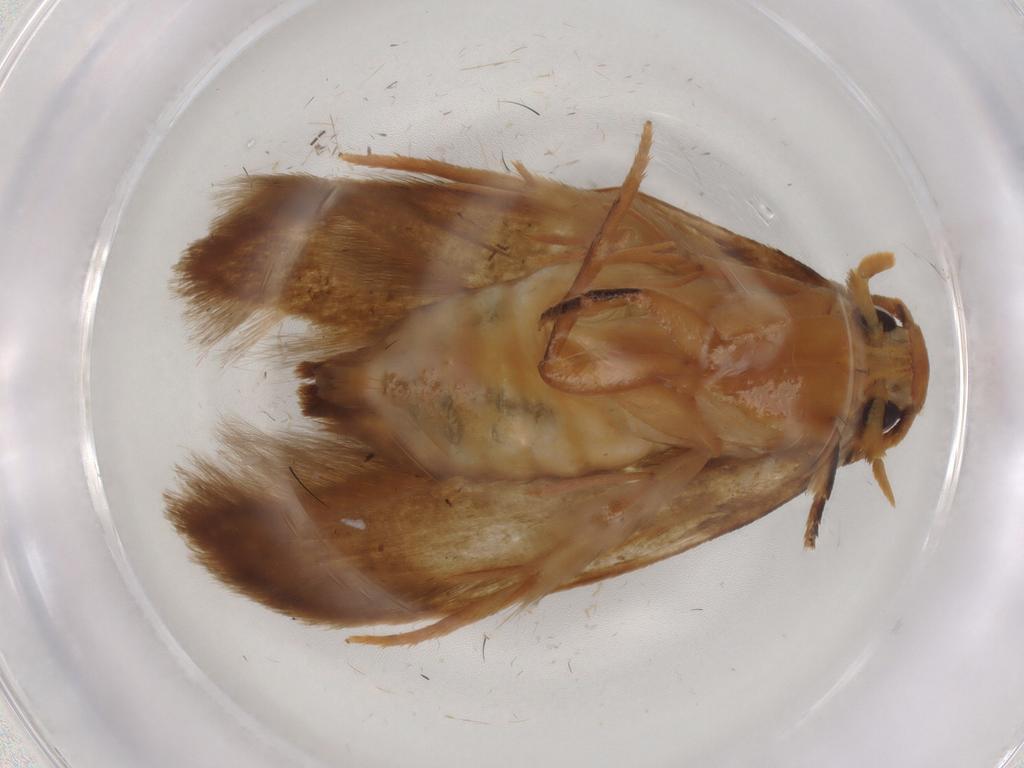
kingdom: Animalia
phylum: Arthropoda
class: Insecta
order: Lepidoptera
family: Tineidae
